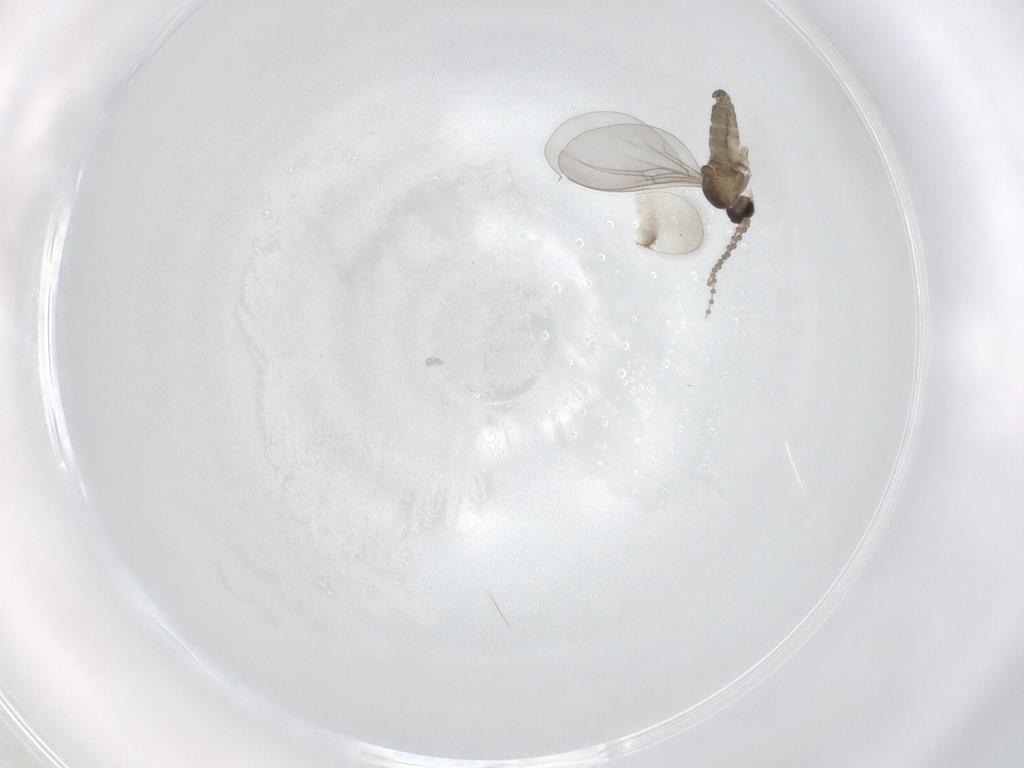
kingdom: Animalia
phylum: Arthropoda
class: Insecta
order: Diptera
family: Cecidomyiidae
